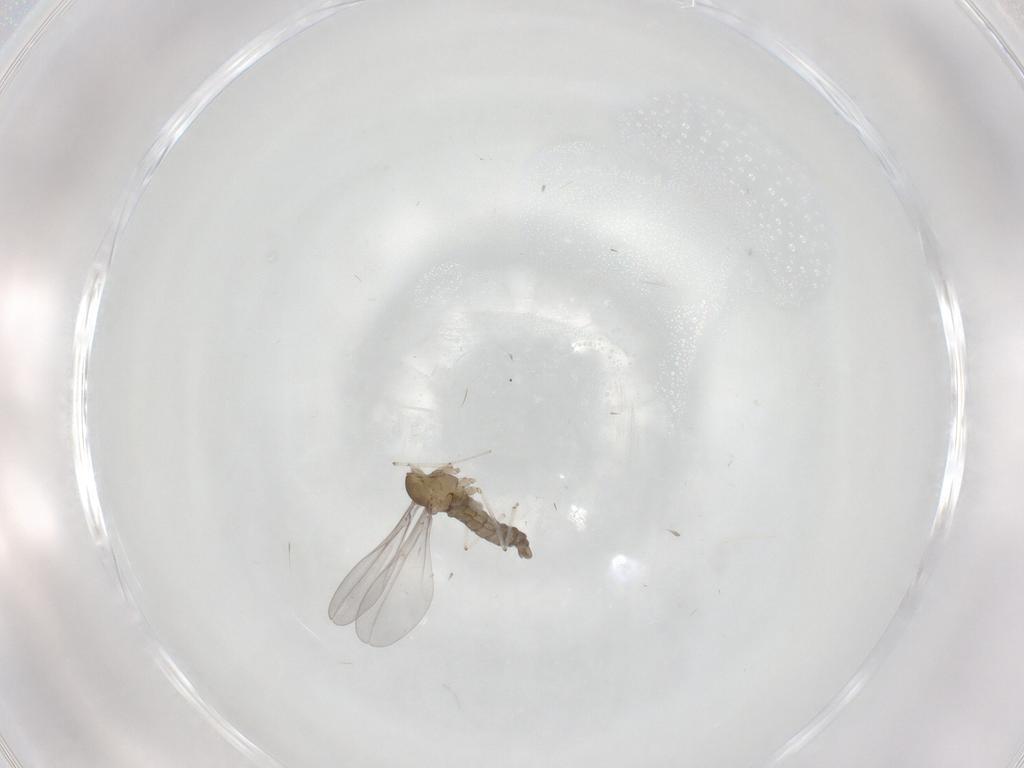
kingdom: Animalia
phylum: Arthropoda
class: Insecta
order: Diptera
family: Cecidomyiidae
